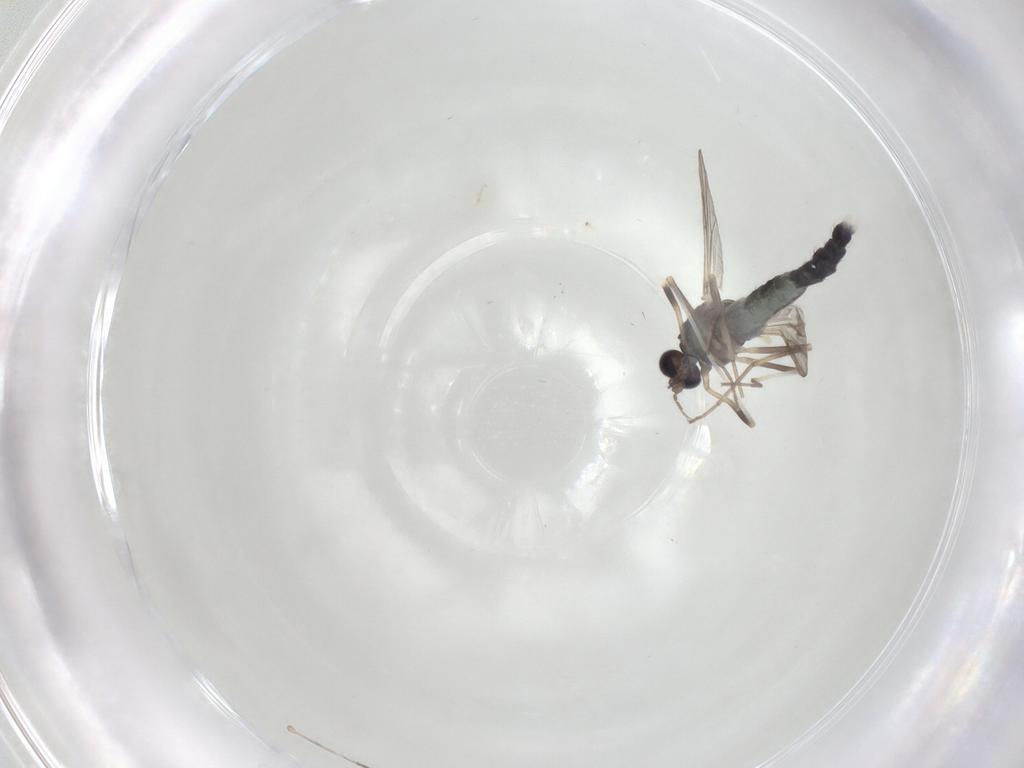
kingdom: Animalia
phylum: Arthropoda
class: Insecta
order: Diptera
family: Chironomidae
